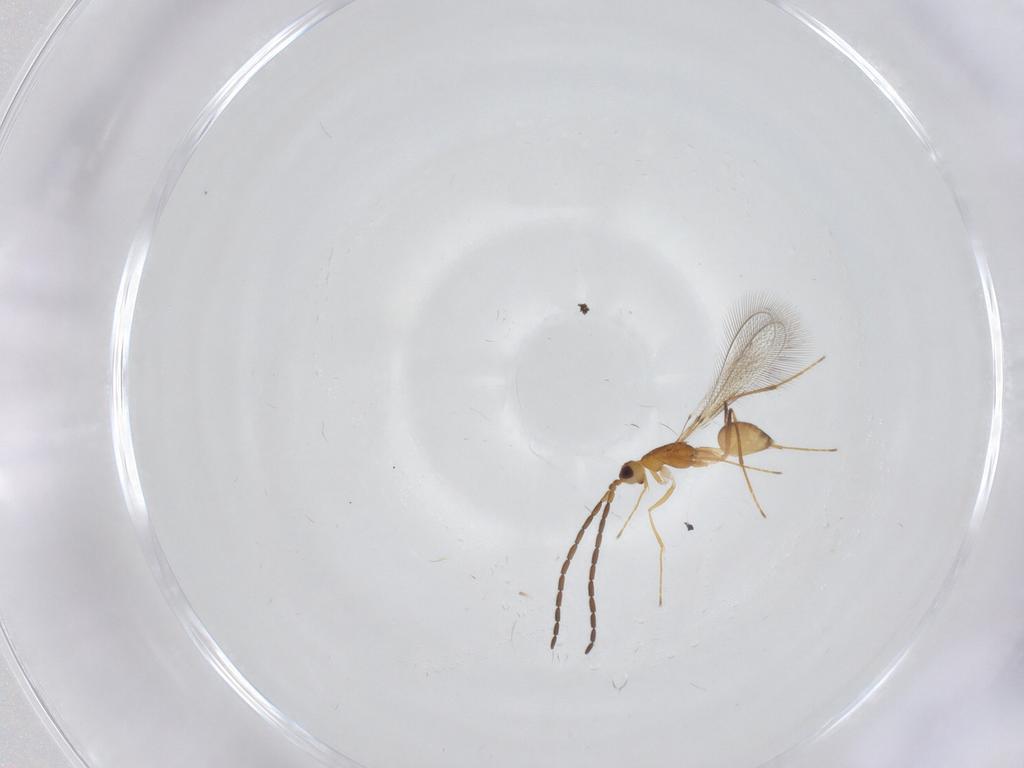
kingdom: Animalia
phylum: Arthropoda
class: Insecta
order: Hymenoptera
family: Mymaridae
